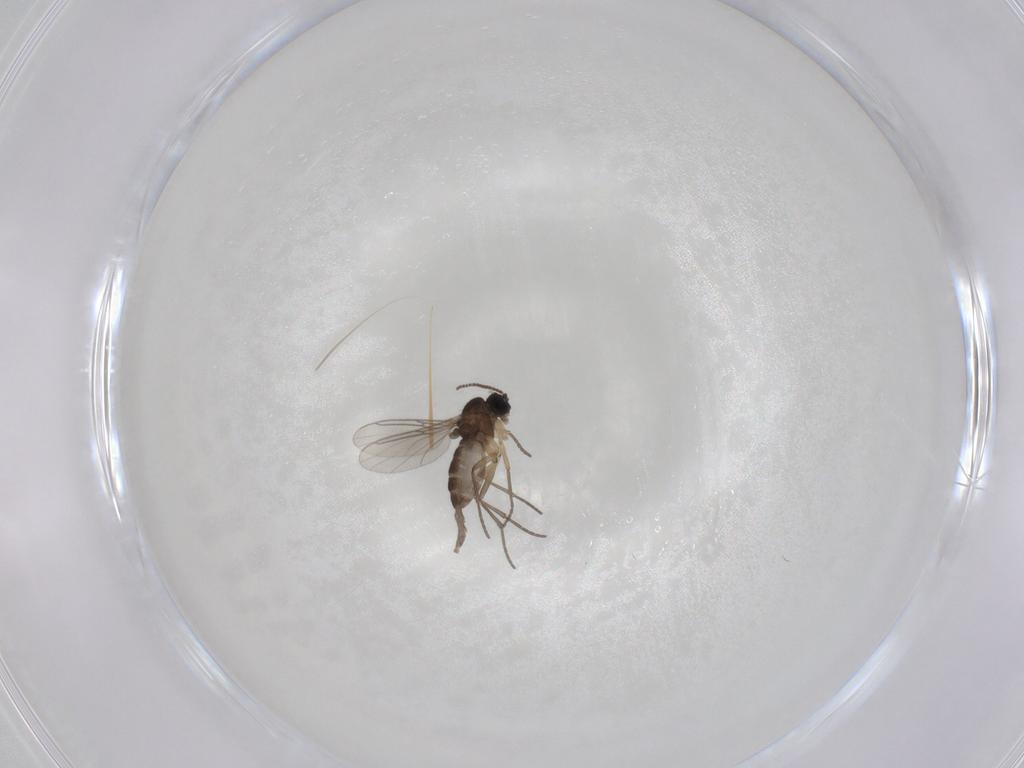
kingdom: Animalia
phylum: Arthropoda
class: Insecta
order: Diptera
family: Sciaridae
